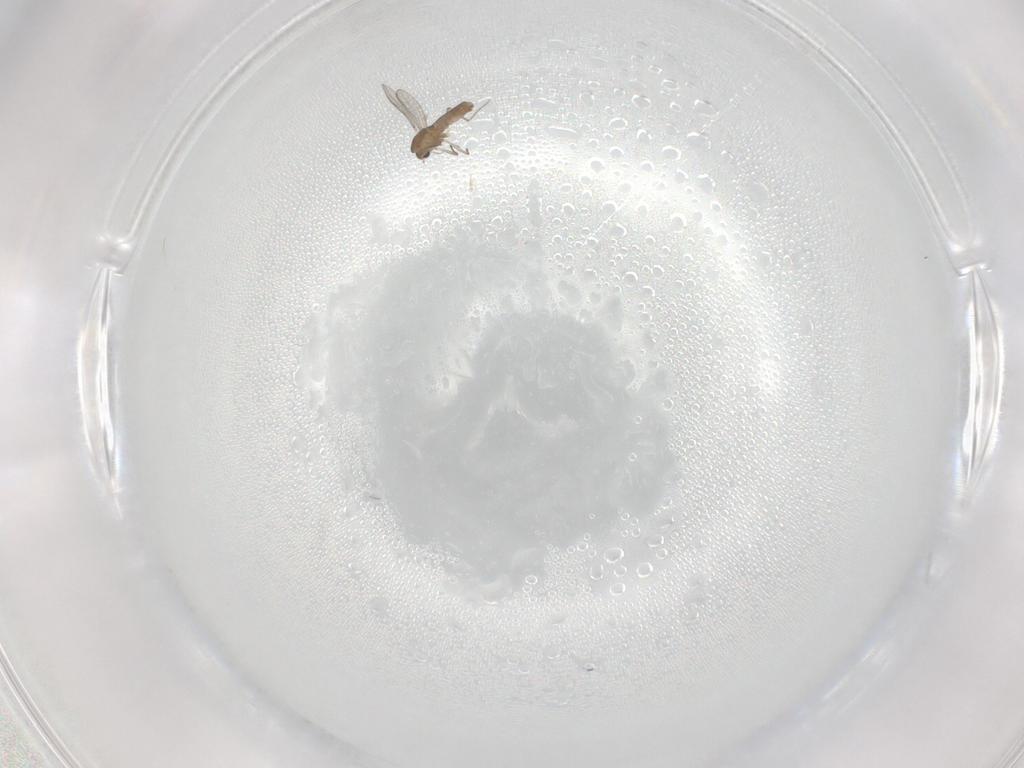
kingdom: Animalia
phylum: Arthropoda
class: Insecta
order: Diptera
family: Chironomidae
